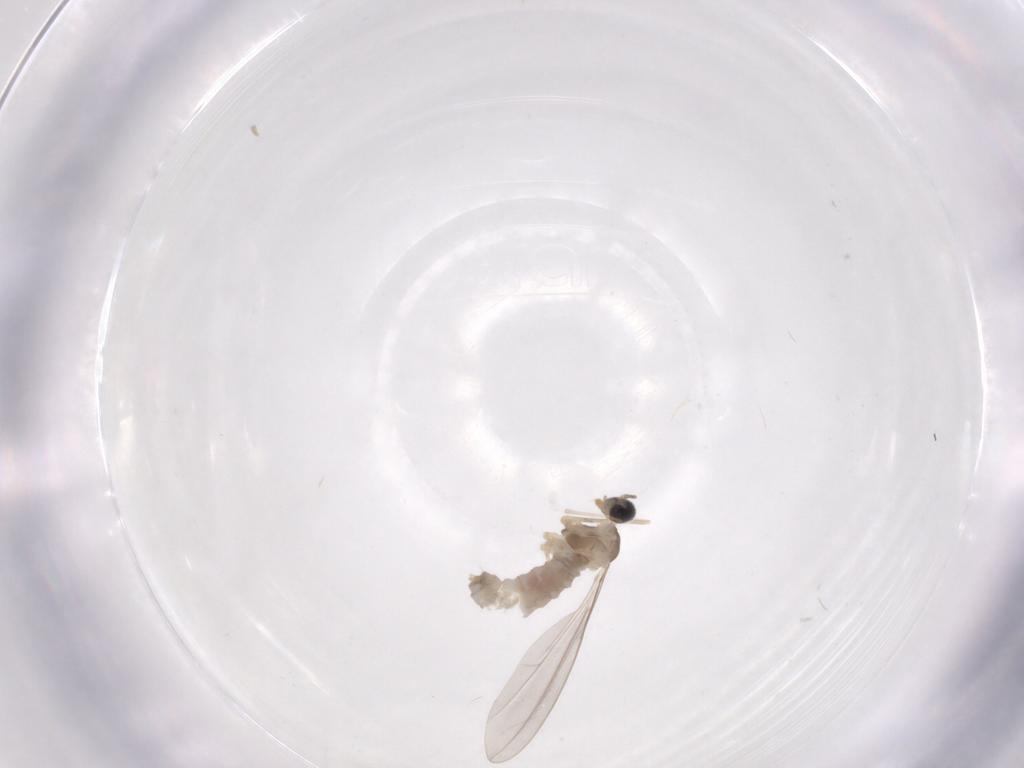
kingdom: Animalia
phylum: Arthropoda
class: Insecta
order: Diptera
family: Cecidomyiidae
